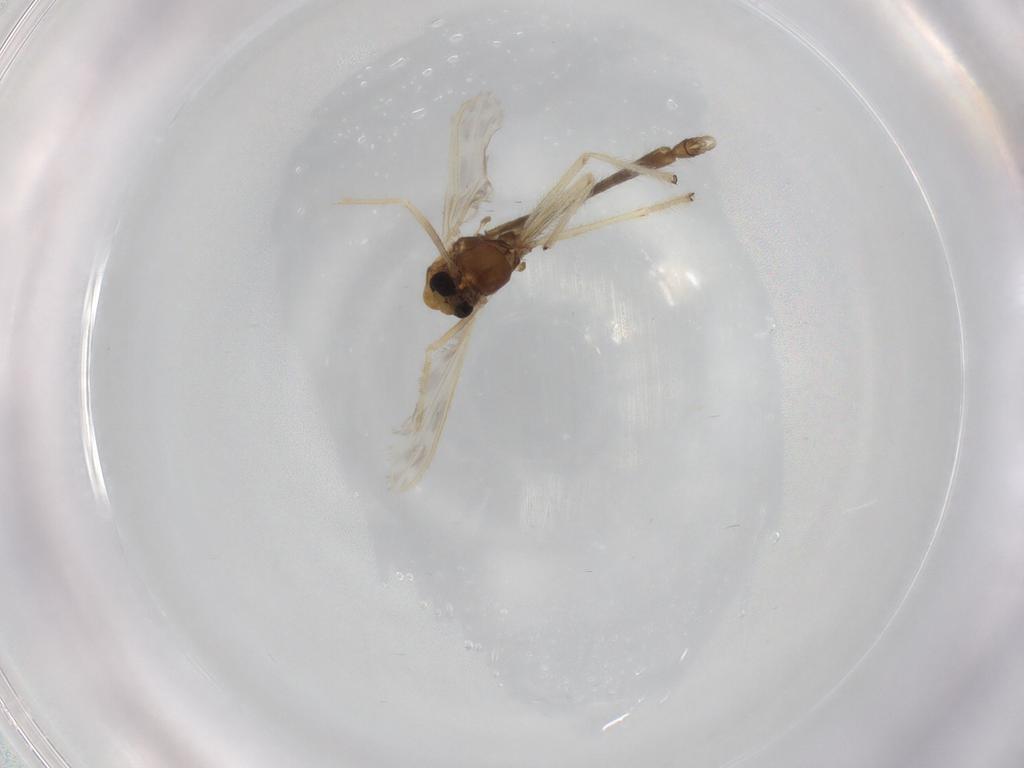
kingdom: Animalia
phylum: Arthropoda
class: Insecta
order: Diptera
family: Chironomidae
